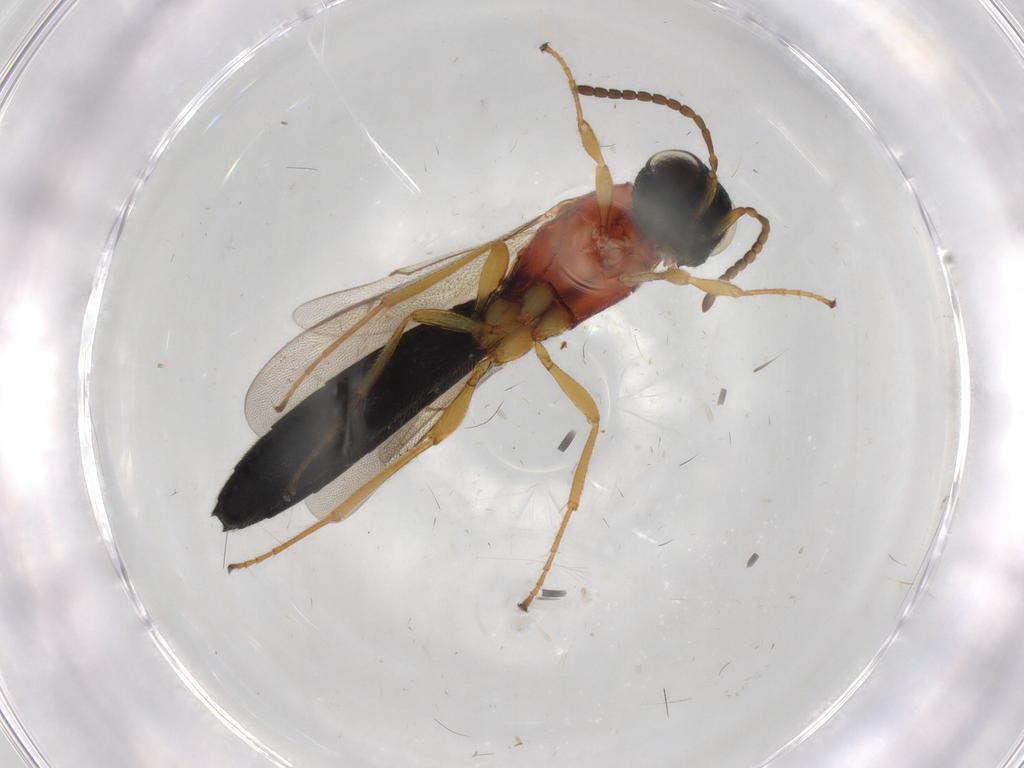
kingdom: Animalia
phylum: Arthropoda
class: Insecta
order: Hymenoptera
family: Scelionidae
